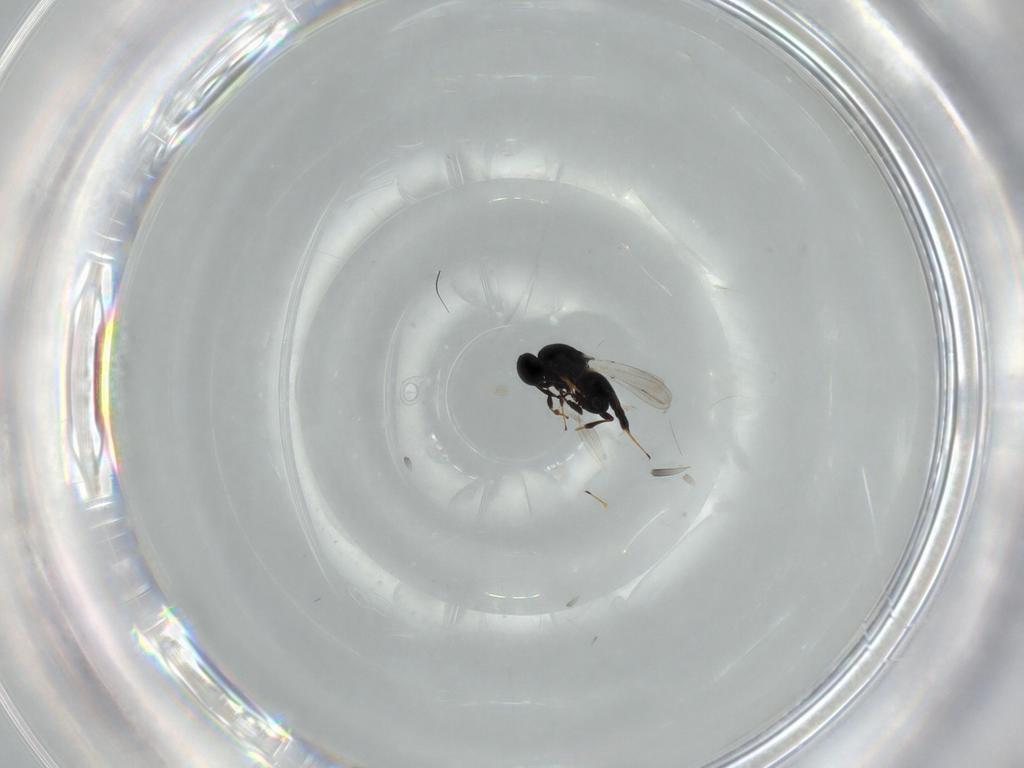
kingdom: Animalia
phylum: Arthropoda
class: Insecta
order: Hymenoptera
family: Platygastridae
